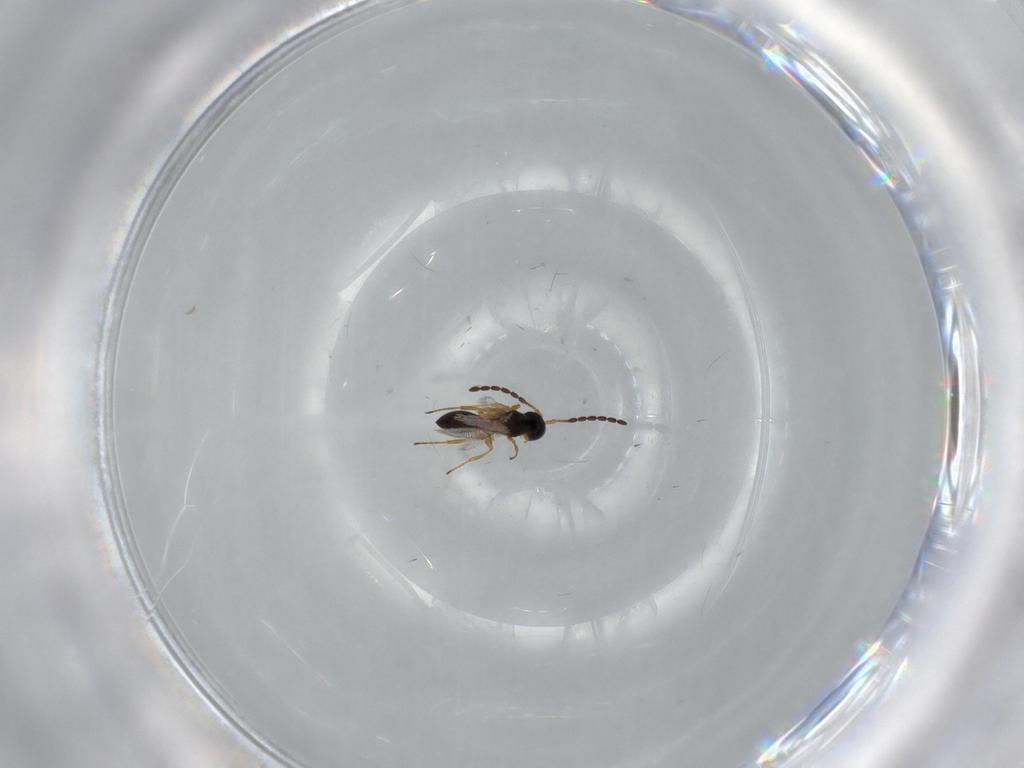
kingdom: Animalia
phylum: Arthropoda
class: Insecta
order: Hymenoptera
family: Figitidae
